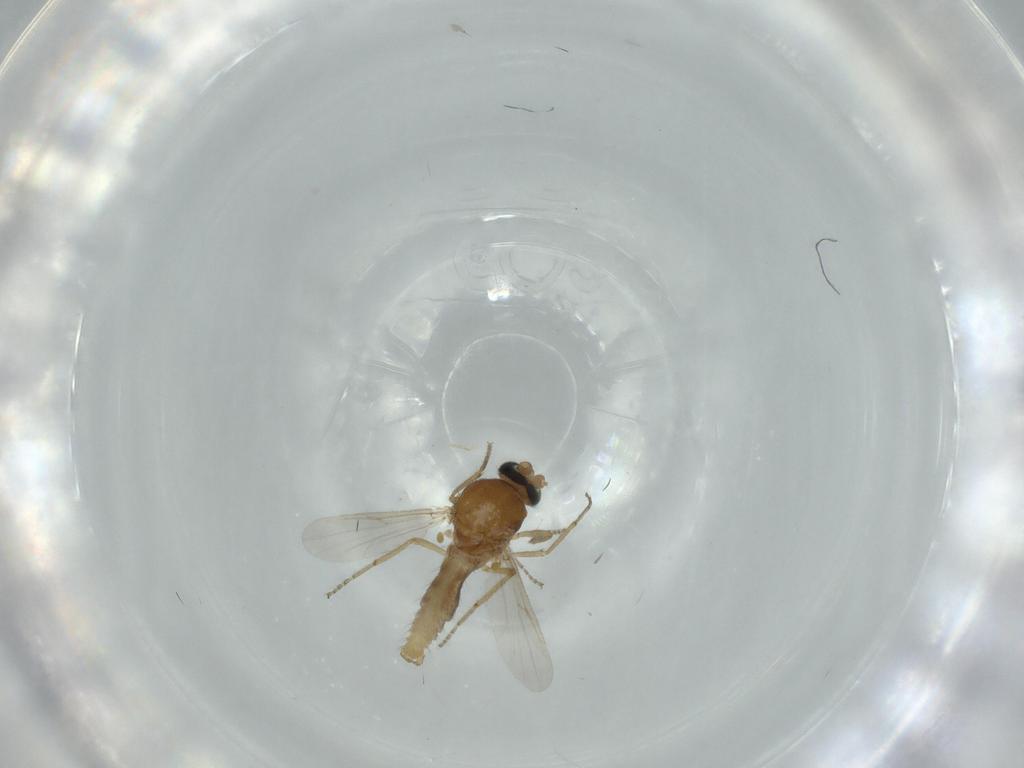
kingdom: Animalia
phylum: Arthropoda
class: Insecta
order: Diptera
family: Ceratopogonidae
